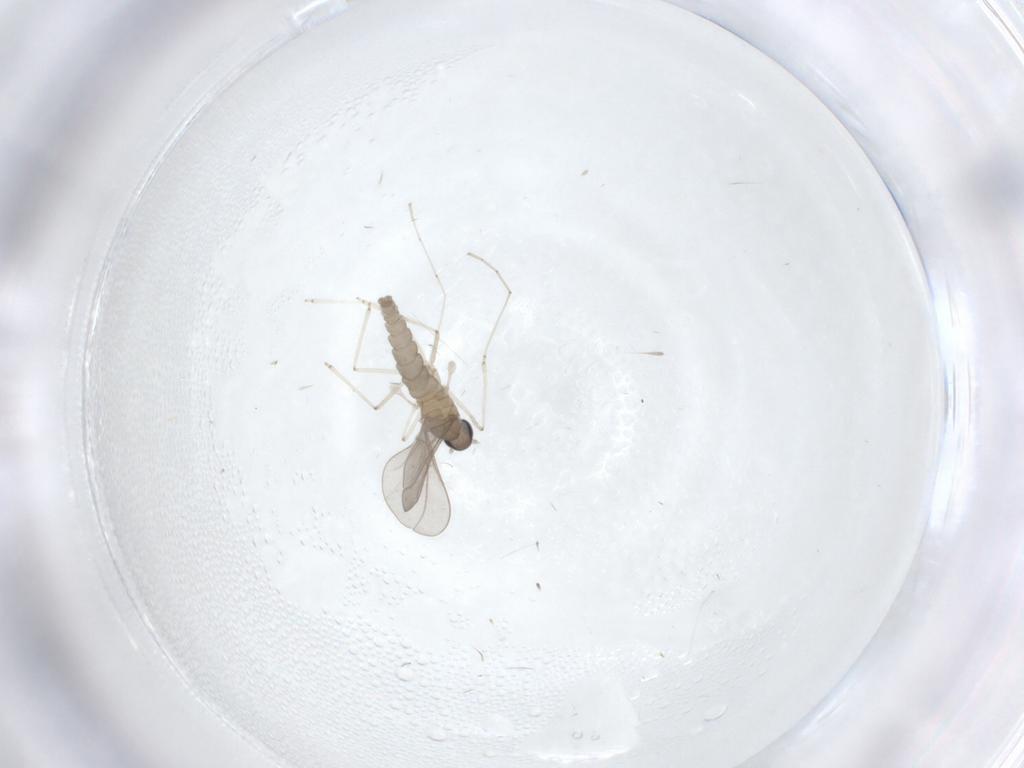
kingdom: Animalia
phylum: Arthropoda
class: Insecta
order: Diptera
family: Cecidomyiidae
